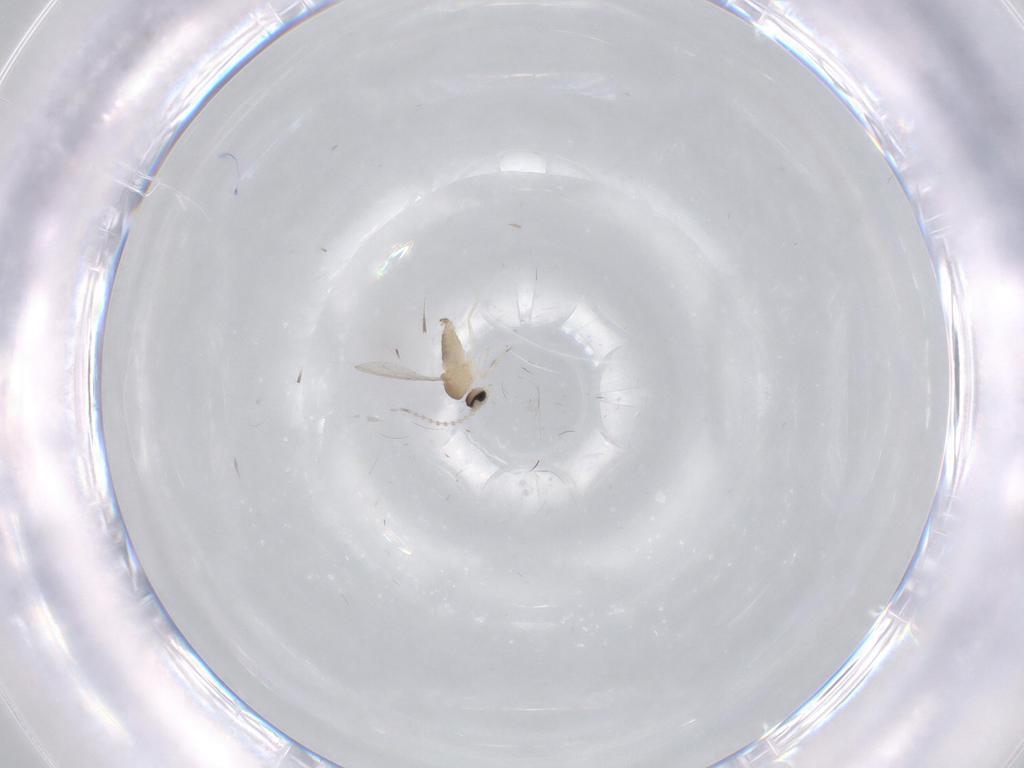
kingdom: Animalia
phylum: Arthropoda
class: Insecta
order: Diptera
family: Cecidomyiidae
